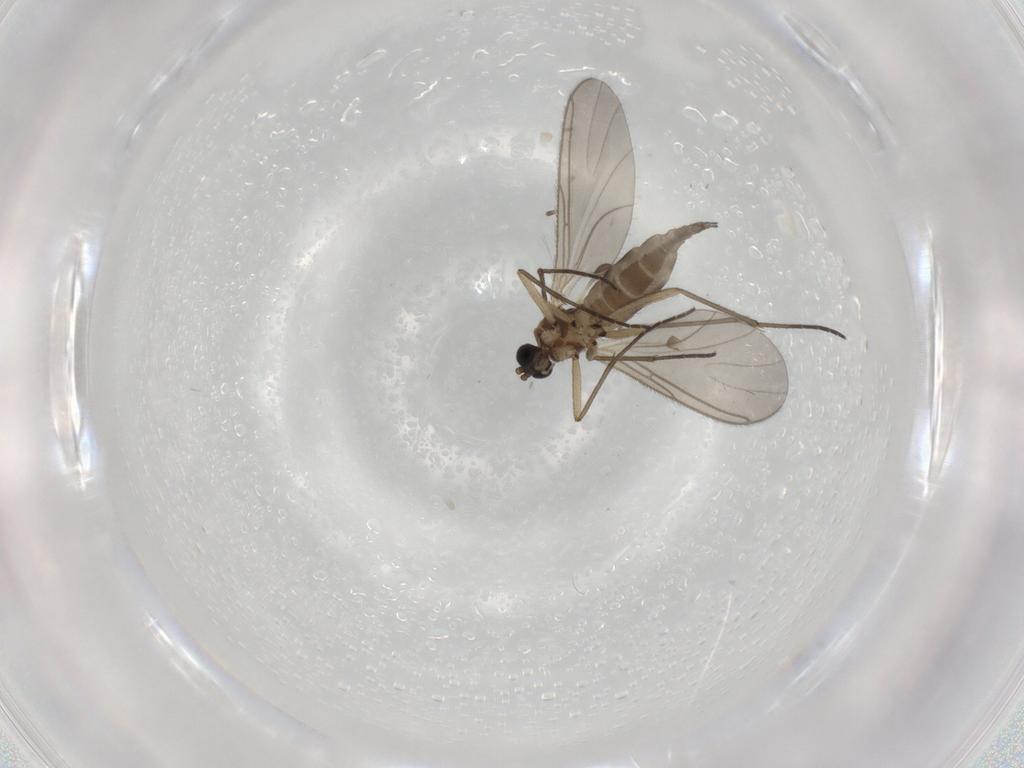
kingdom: Animalia
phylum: Arthropoda
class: Insecta
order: Diptera
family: Sciaridae
